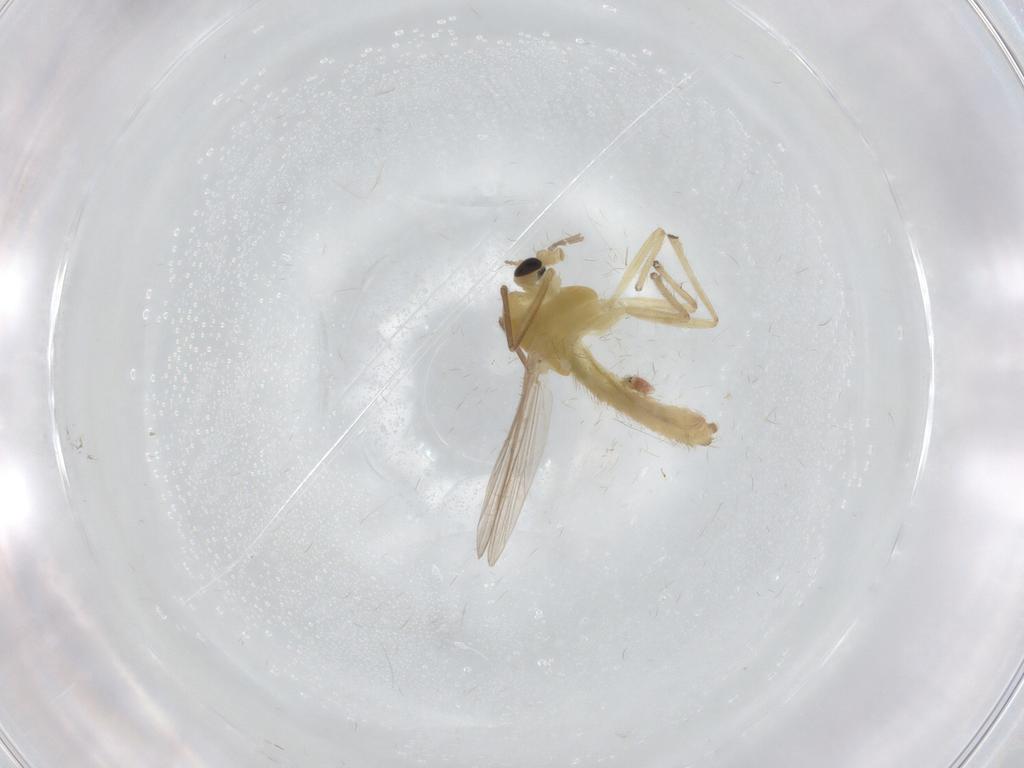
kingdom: Animalia
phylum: Arthropoda
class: Insecta
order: Diptera
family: Chironomidae
